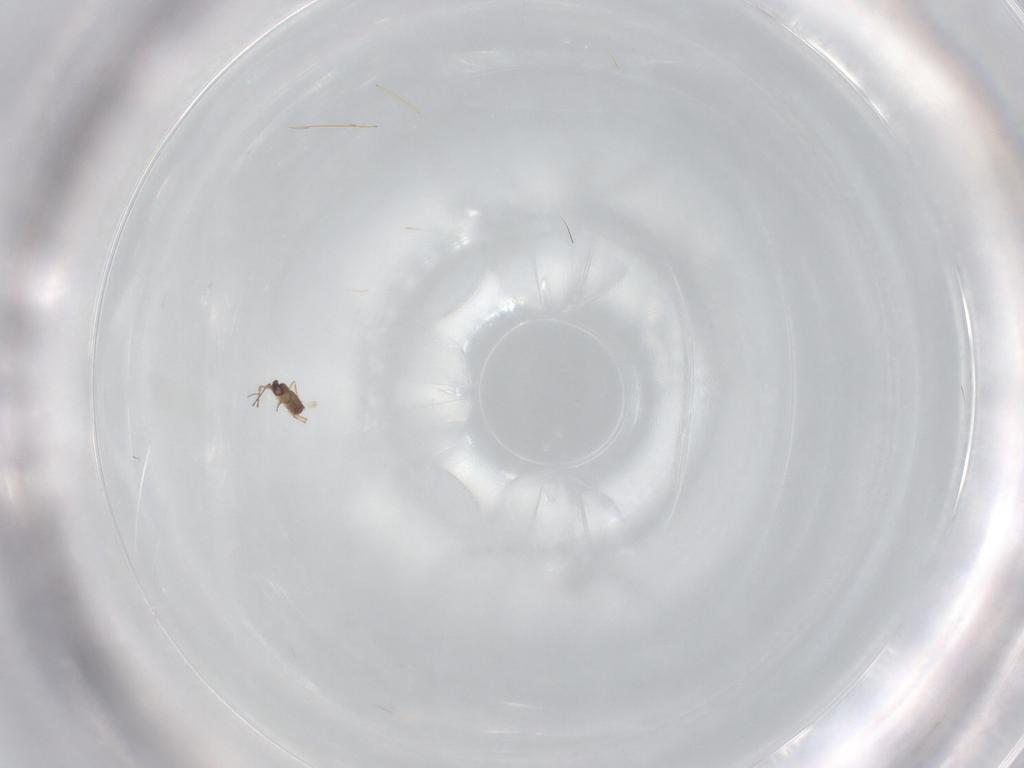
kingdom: Animalia
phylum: Arthropoda
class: Insecta
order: Hymenoptera
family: Mymaridae
